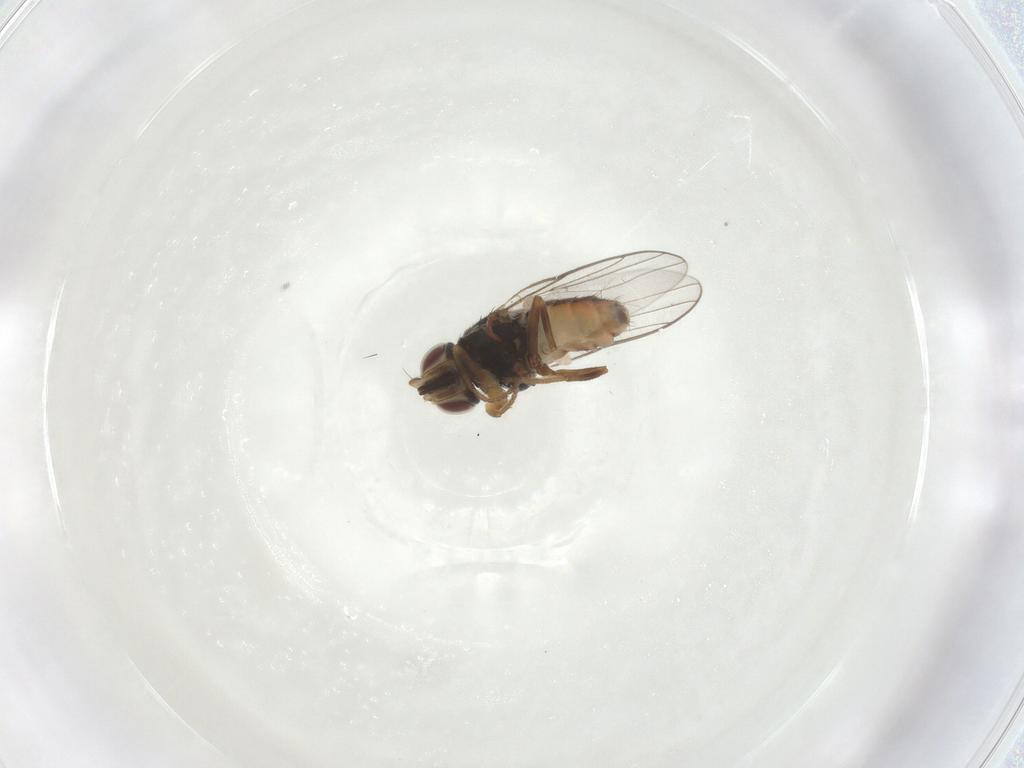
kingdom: Animalia
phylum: Arthropoda
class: Insecta
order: Diptera
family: Chloropidae
